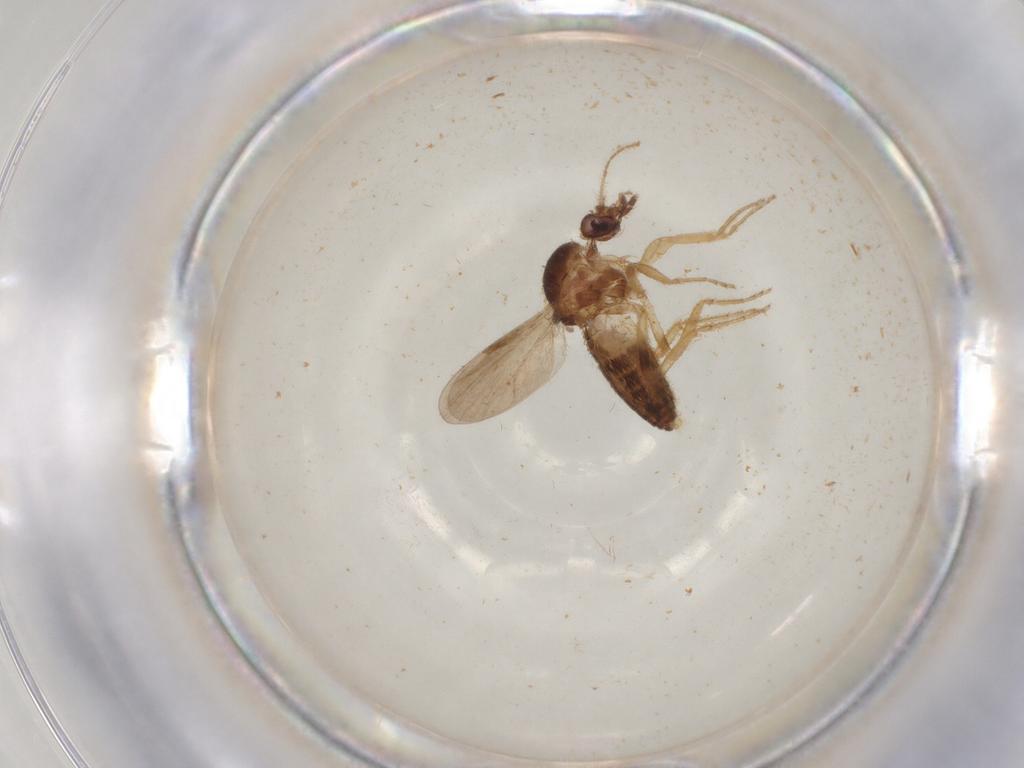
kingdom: Animalia
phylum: Arthropoda
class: Insecta
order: Diptera
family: Ceratopogonidae
